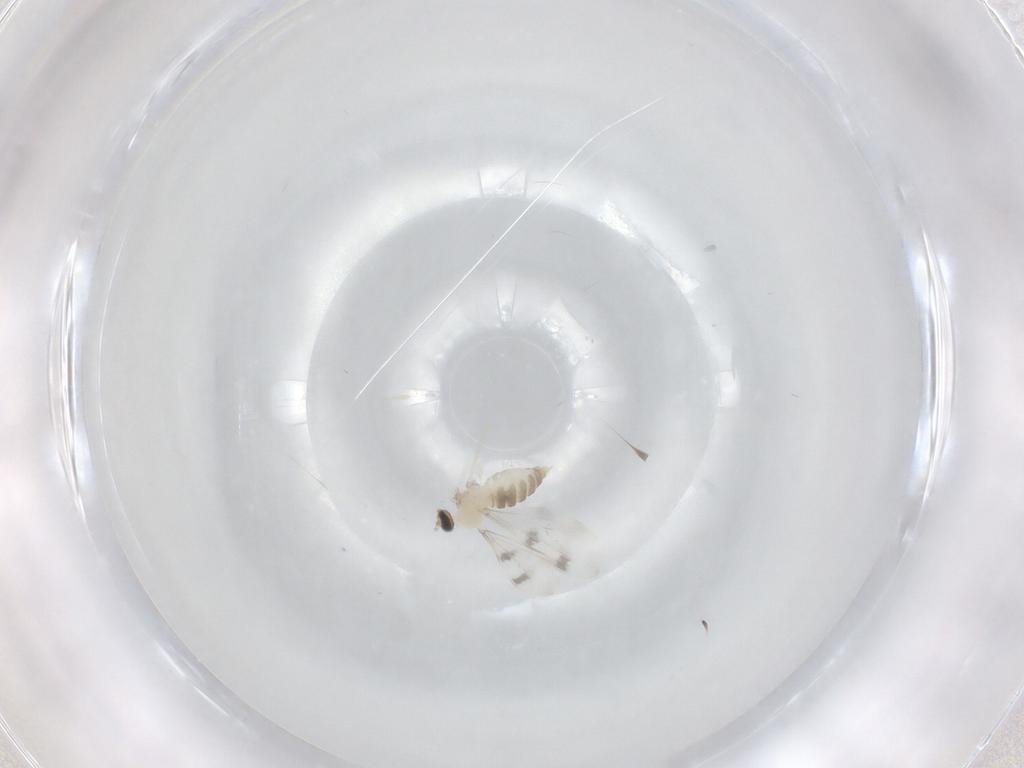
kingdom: Animalia
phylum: Arthropoda
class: Insecta
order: Diptera
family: Cecidomyiidae
